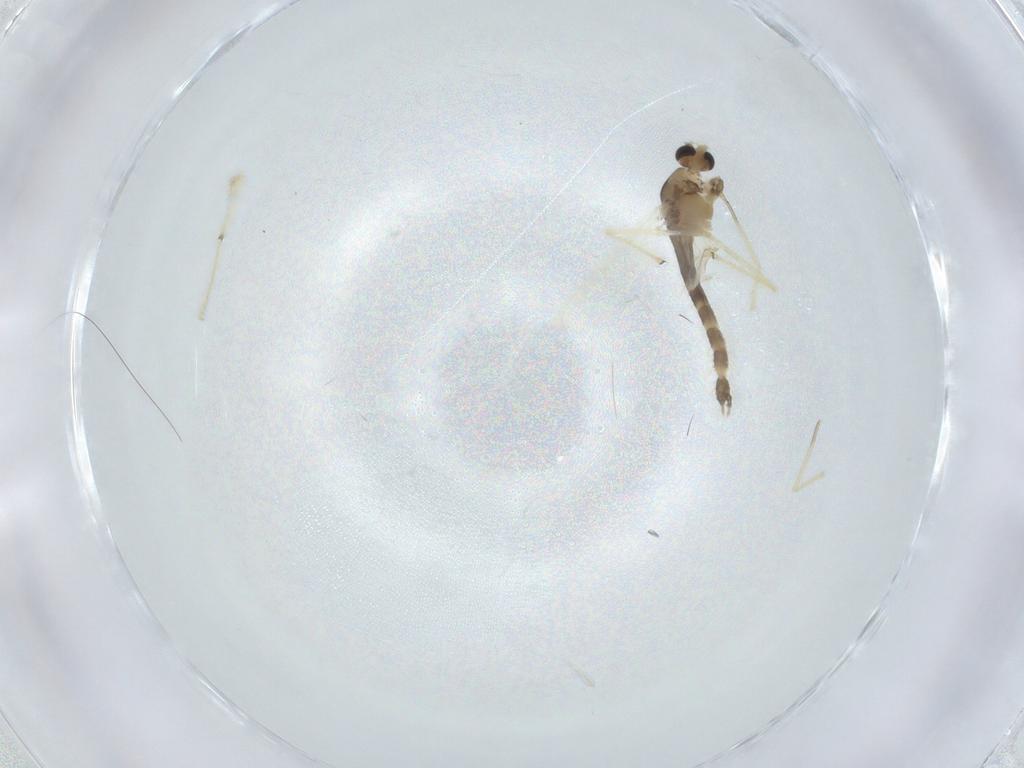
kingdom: Animalia
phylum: Arthropoda
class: Insecta
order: Diptera
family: Chironomidae
